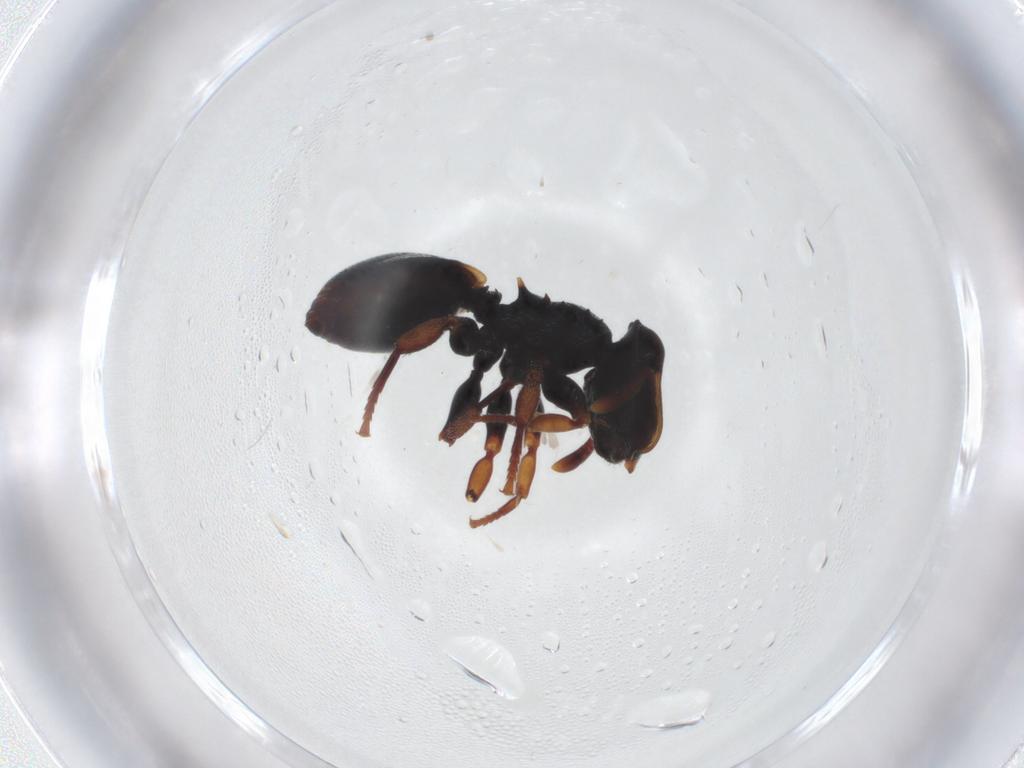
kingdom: Animalia
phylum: Arthropoda
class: Insecta
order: Hymenoptera
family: Formicidae
